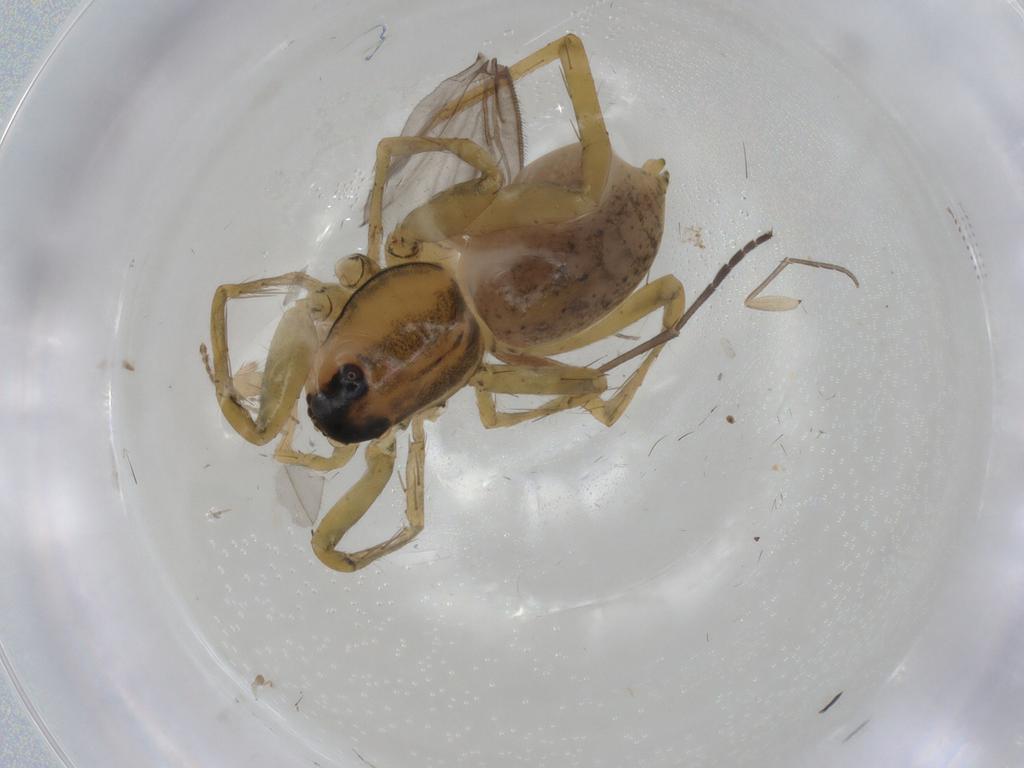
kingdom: Animalia
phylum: Arthropoda
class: Arachnida
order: Araneae
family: Lycosidae
